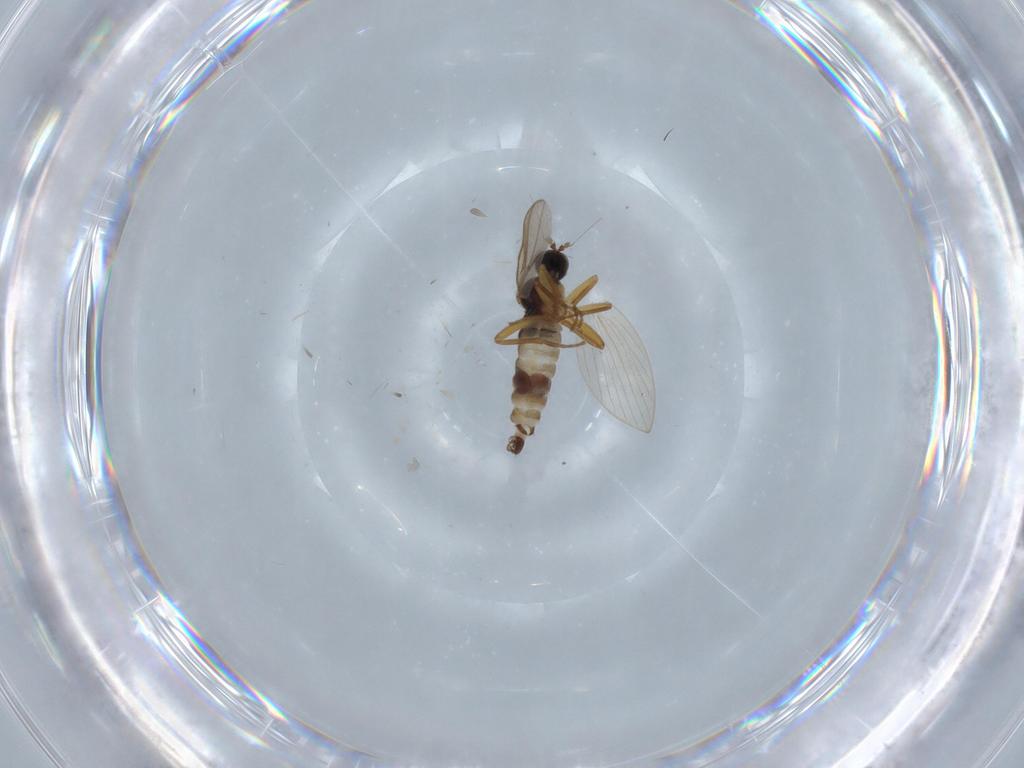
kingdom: Animalia
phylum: Arthropoda
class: Insecta
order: Diptera
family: Hybotidae
